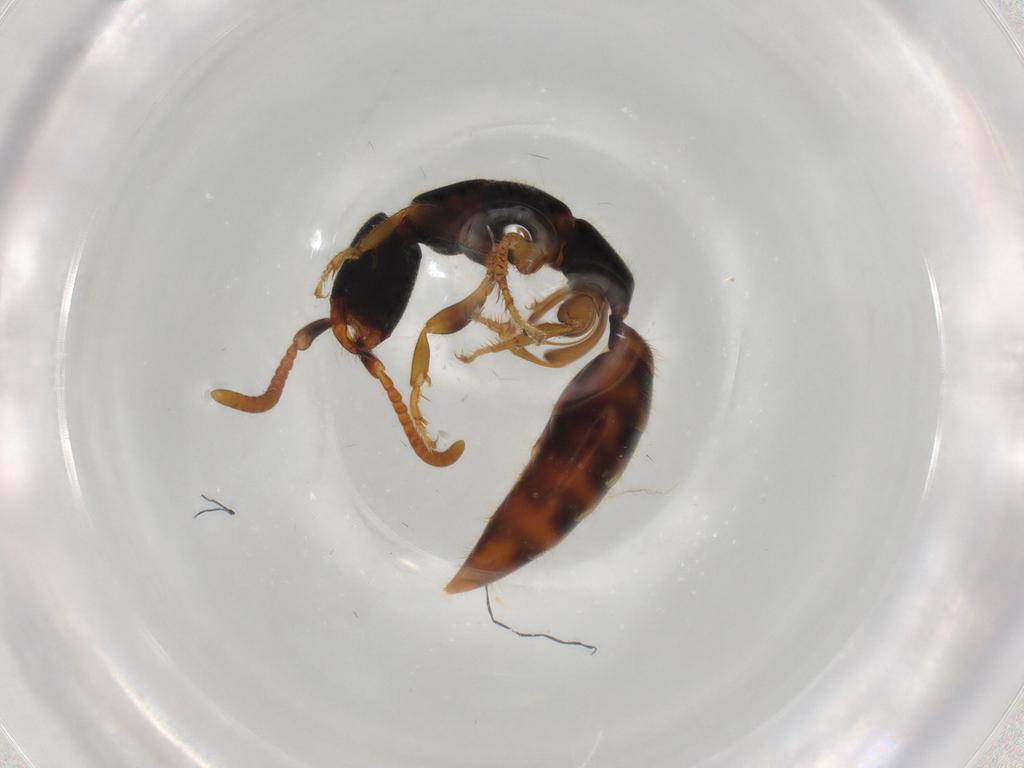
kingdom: Animalia
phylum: Arthropoda
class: Insecta
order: Hymenoptera
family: Bethylidae
